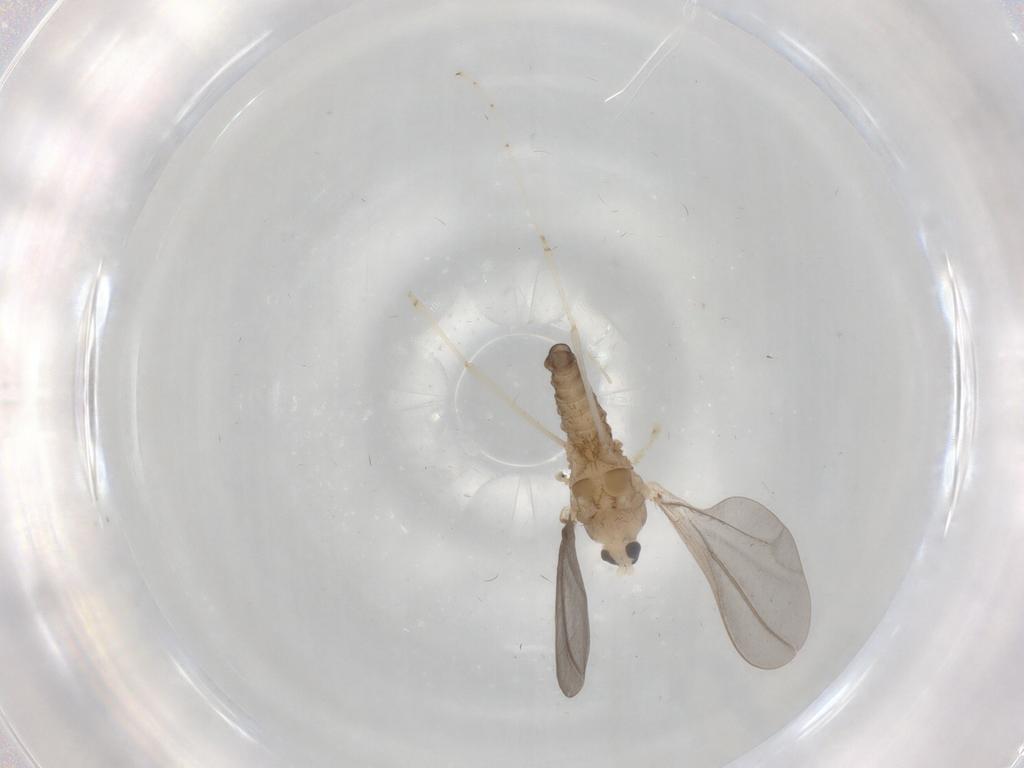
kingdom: Animalia
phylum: Arthropoda
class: Insecta
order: Diptera
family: Cecidomyiidae
